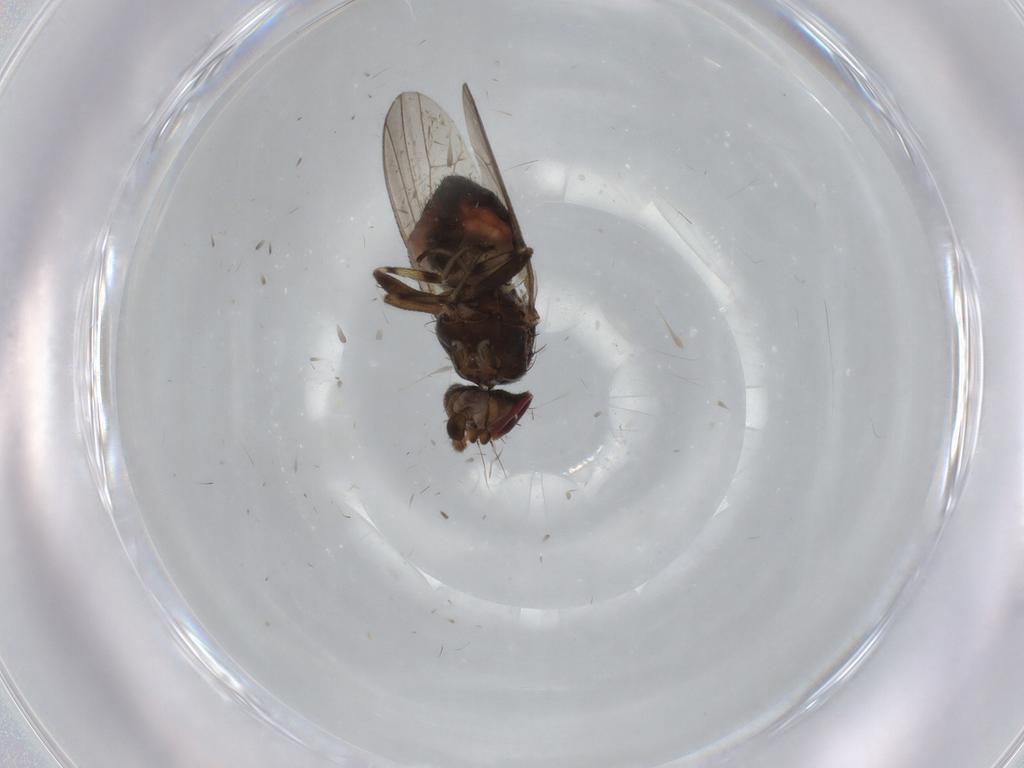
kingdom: Animalia
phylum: Arthropoda
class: Insecta
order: Diptera
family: Heleomyzidae
